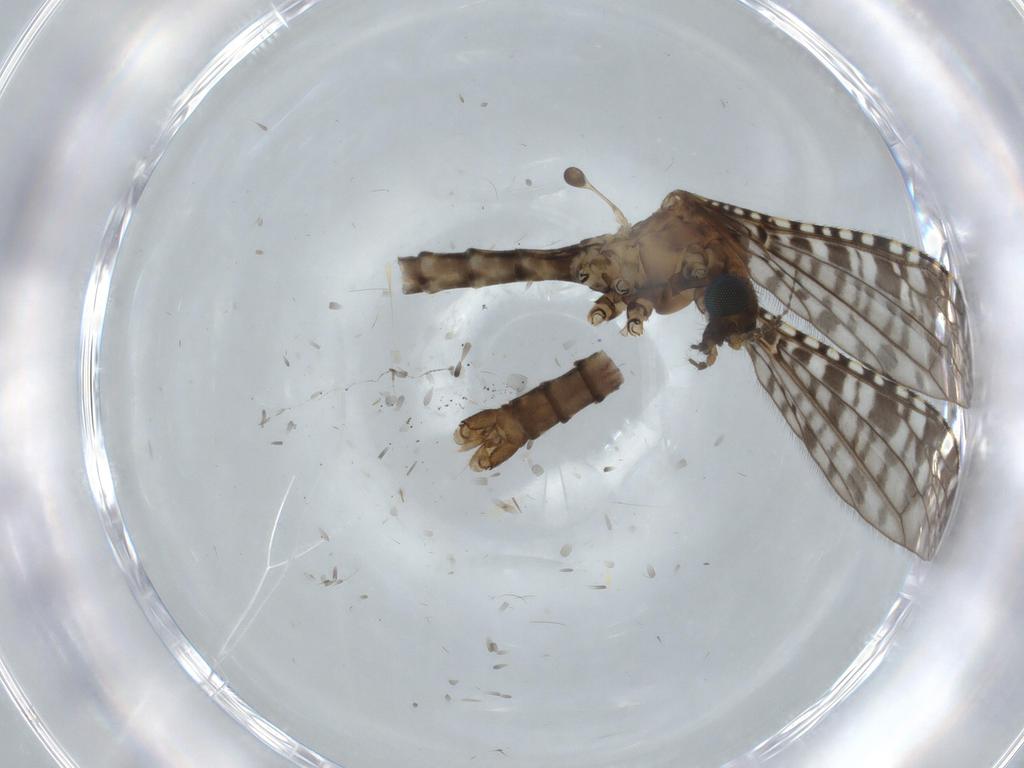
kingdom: Animalia
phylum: Arthropoda
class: Insecta
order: Diptera
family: Sciaridae
